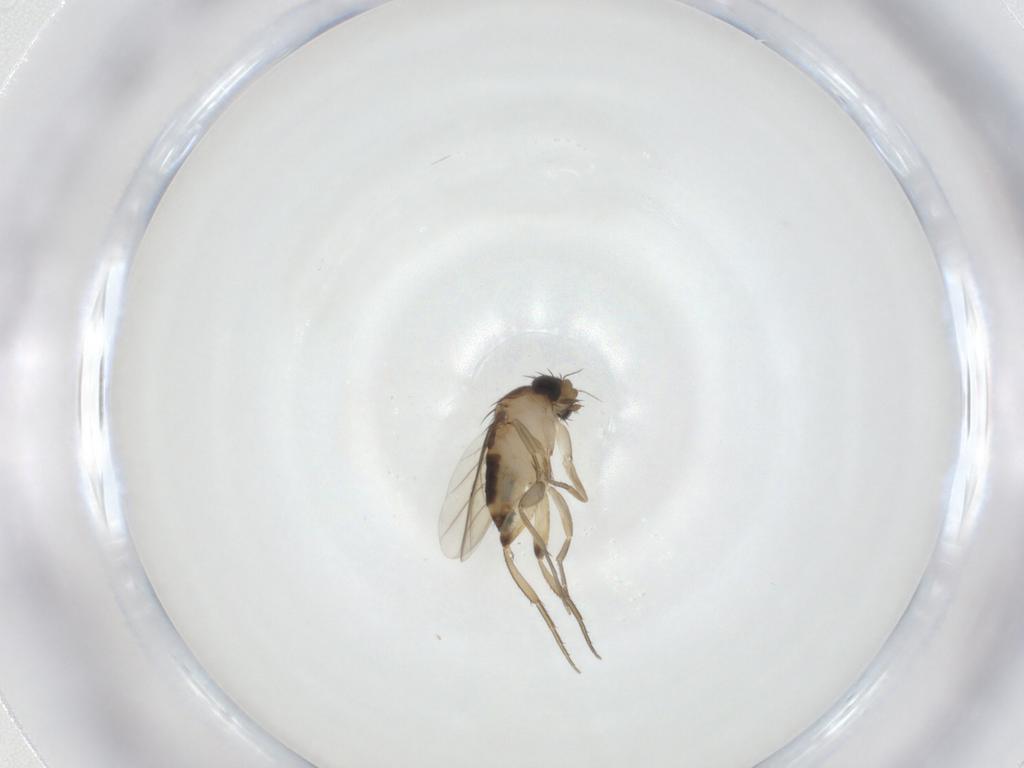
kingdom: Animalia
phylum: Arthropoda
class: Insecta
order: Diptera
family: Phoridae
